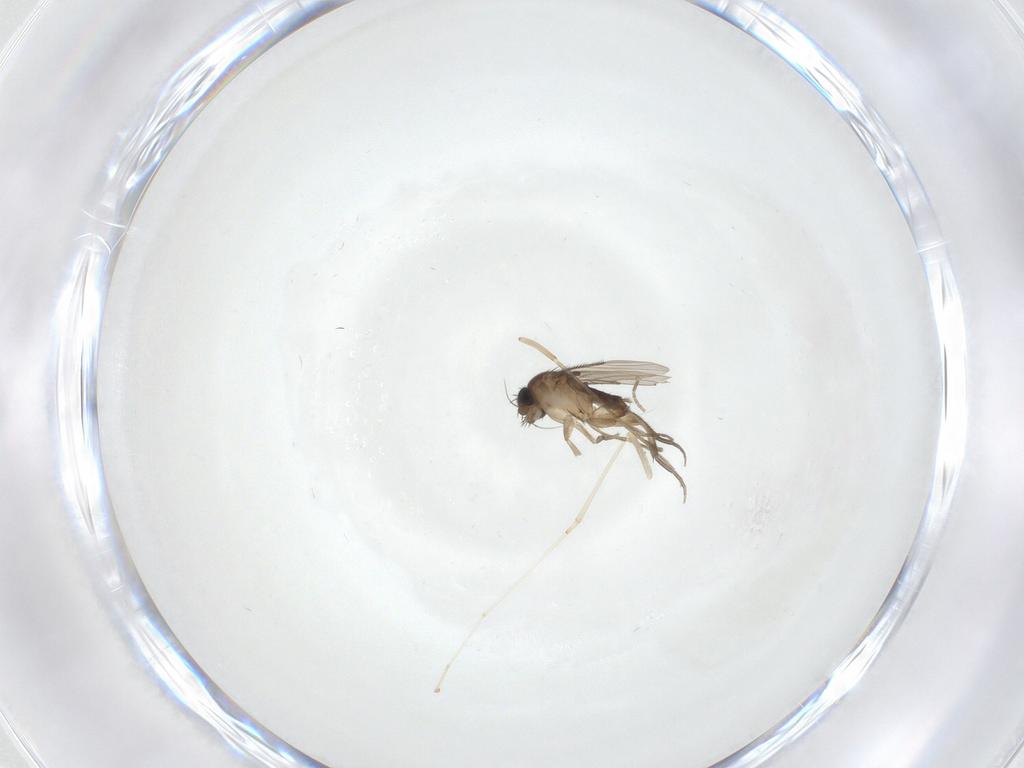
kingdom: Animalia
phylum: Arthropoda
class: Insecta
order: Diptera
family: Phoridae
